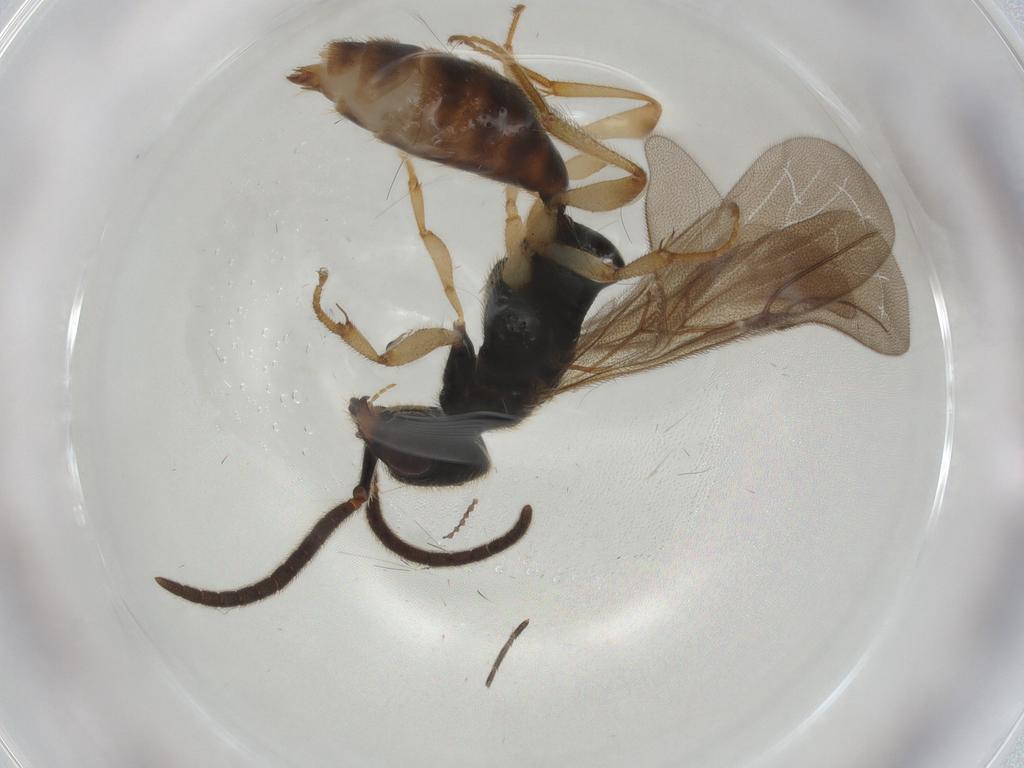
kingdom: Animalia
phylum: Arthropoda
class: Insecta
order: Hymenoptera
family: Bethylidae
